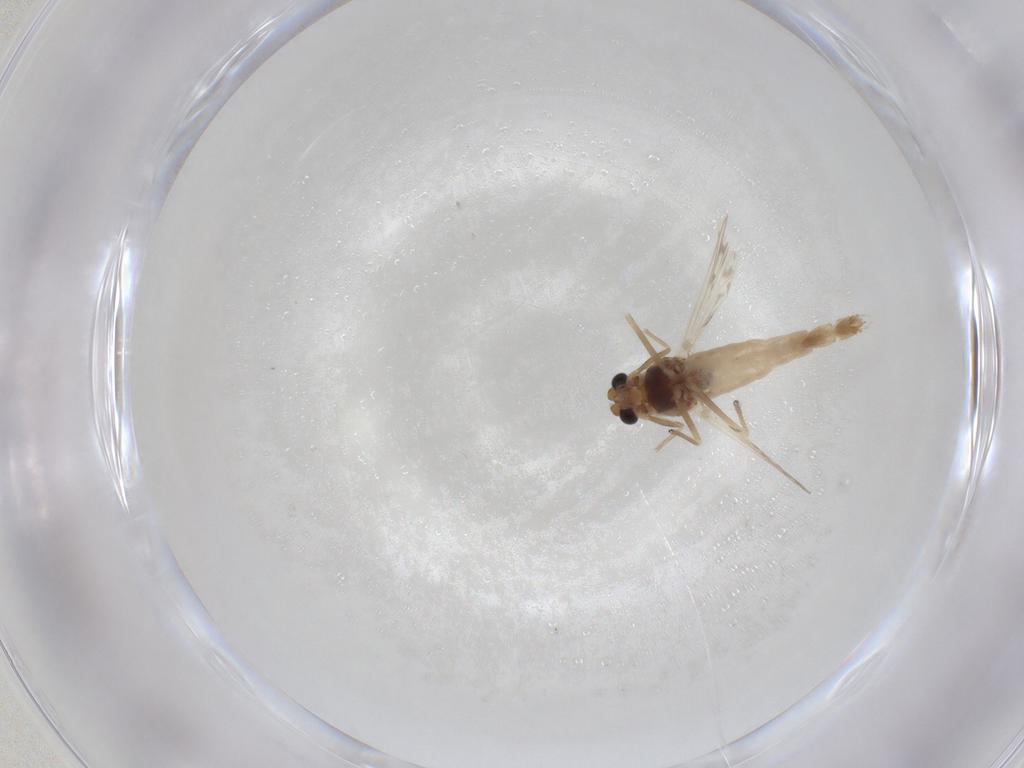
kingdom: Animalia
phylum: Arthropoda
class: Insecta
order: Diptera
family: Chironomidae
